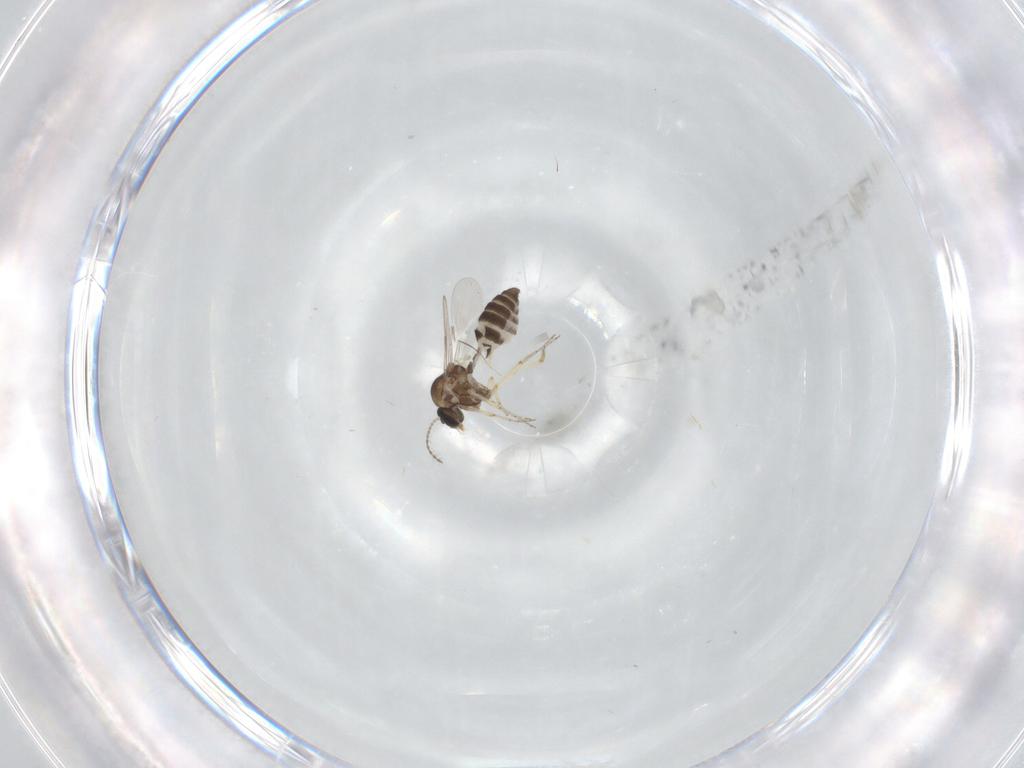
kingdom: Animalia
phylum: Arthropoda
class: Insecta
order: Diptera
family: Ceratopogonidae
